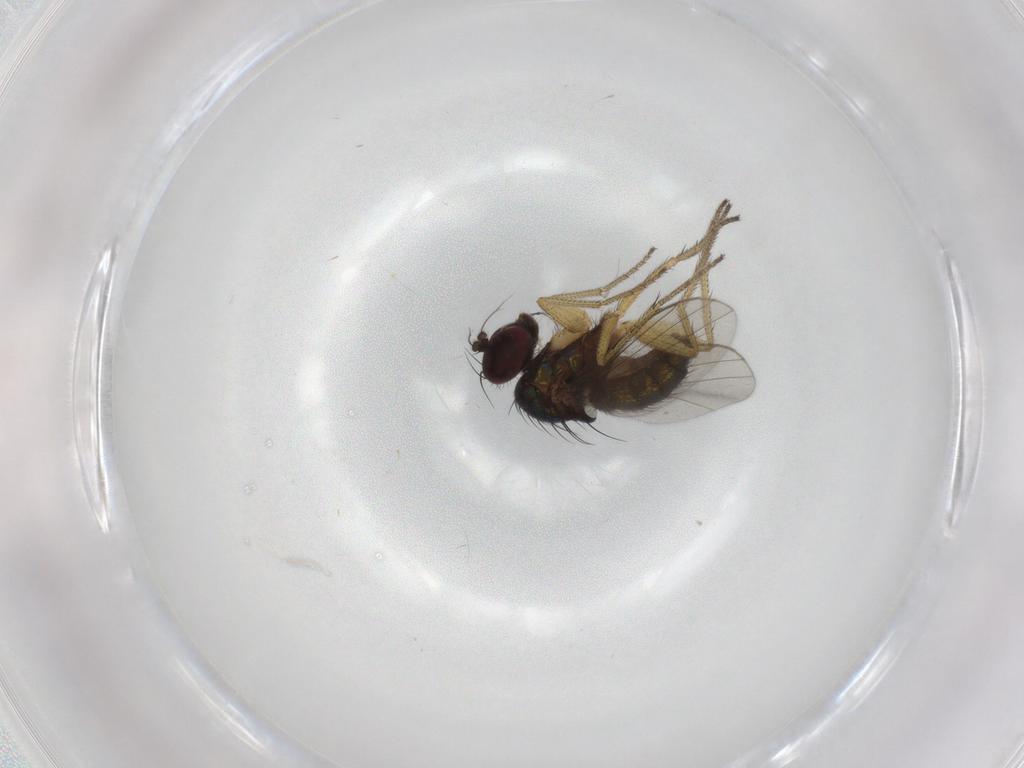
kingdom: Animalia
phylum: Arthropoda
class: Insecta
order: Diptera
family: Dolichopodidae
